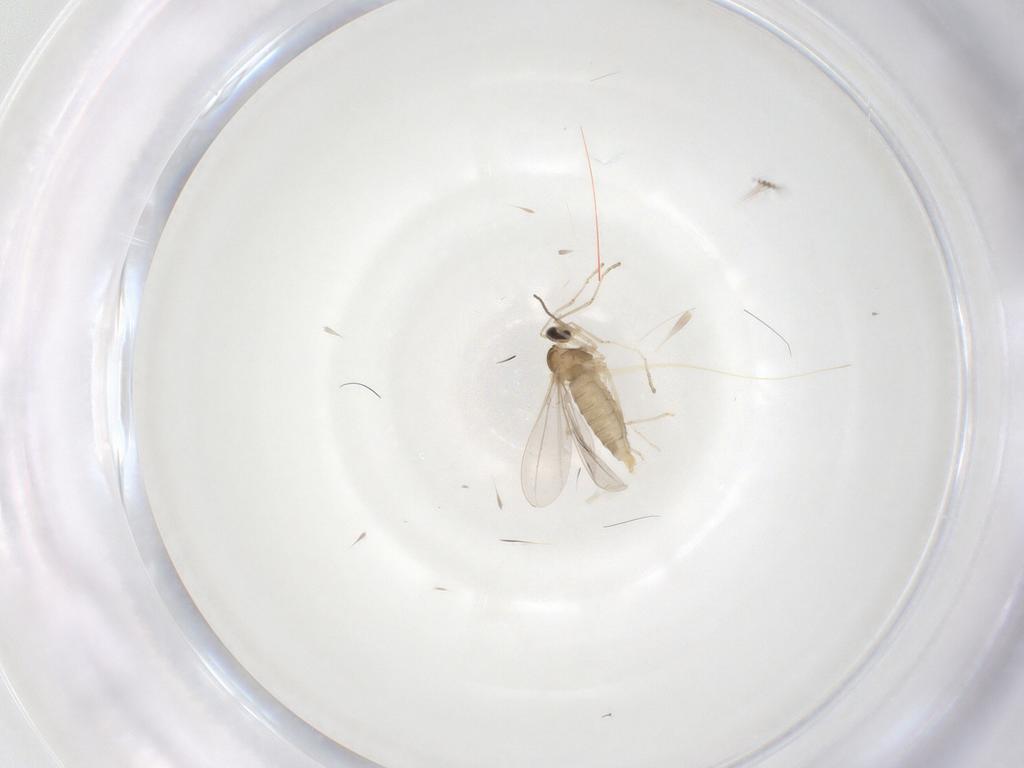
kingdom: Animalia
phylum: Arthropoda
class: Insecta
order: Diptera
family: Cecidomyiidae
